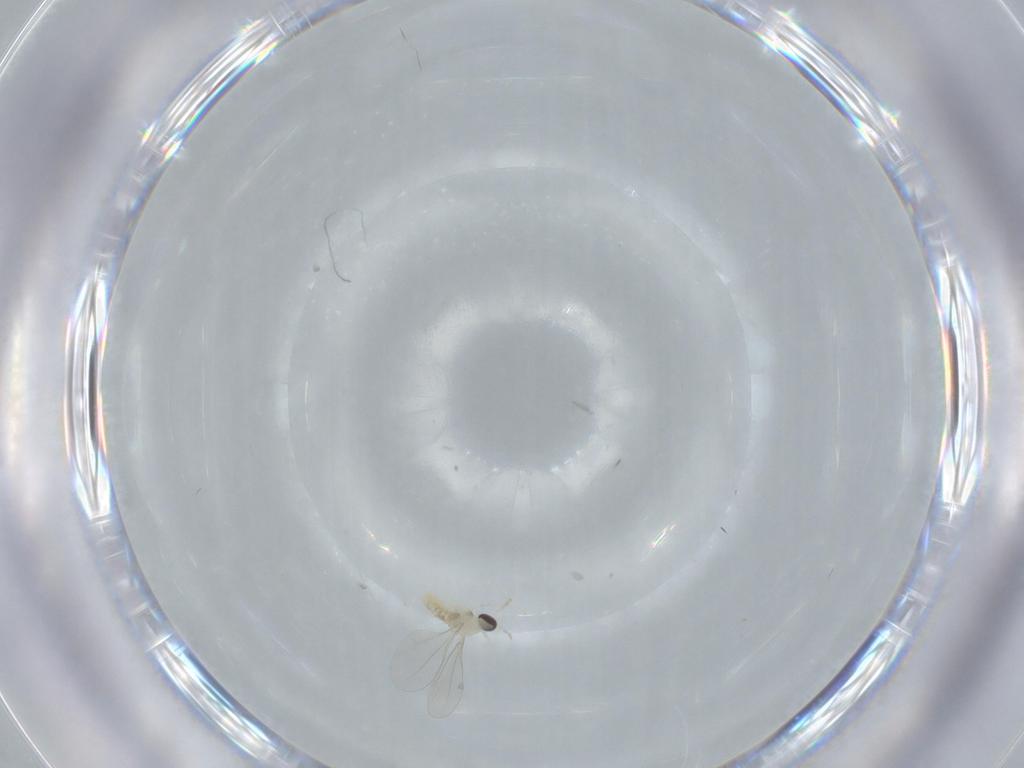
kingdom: Animalia
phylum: Arthropoda
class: Insecta
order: Diptera
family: Cecidomyiidae
